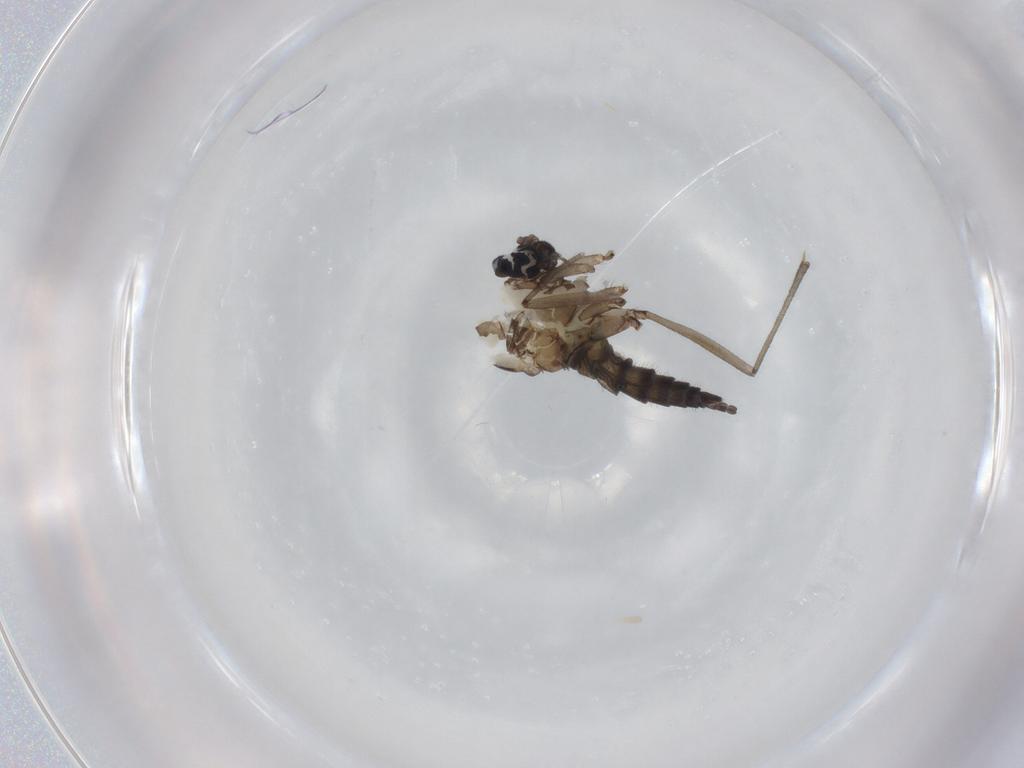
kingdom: Animalia
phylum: Arthropoda
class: Insecta
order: Diptera
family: Sciaridae
